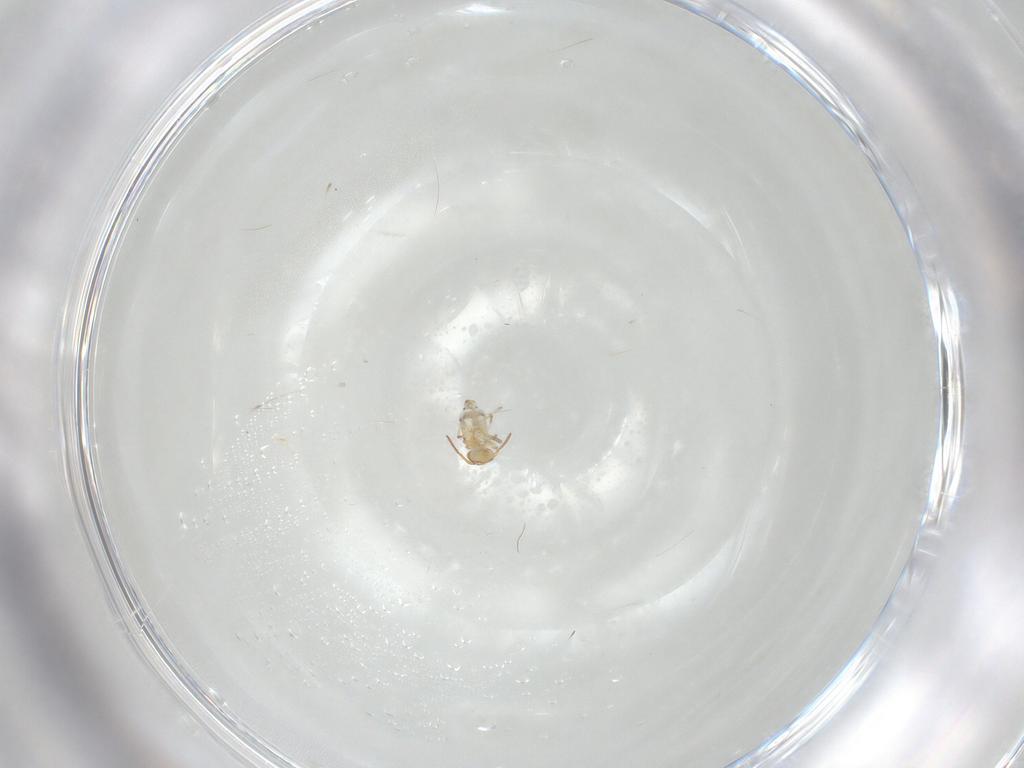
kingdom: Animalia
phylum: Arthropoda
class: Collembola
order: Symphypleona
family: Bourletiellidae
